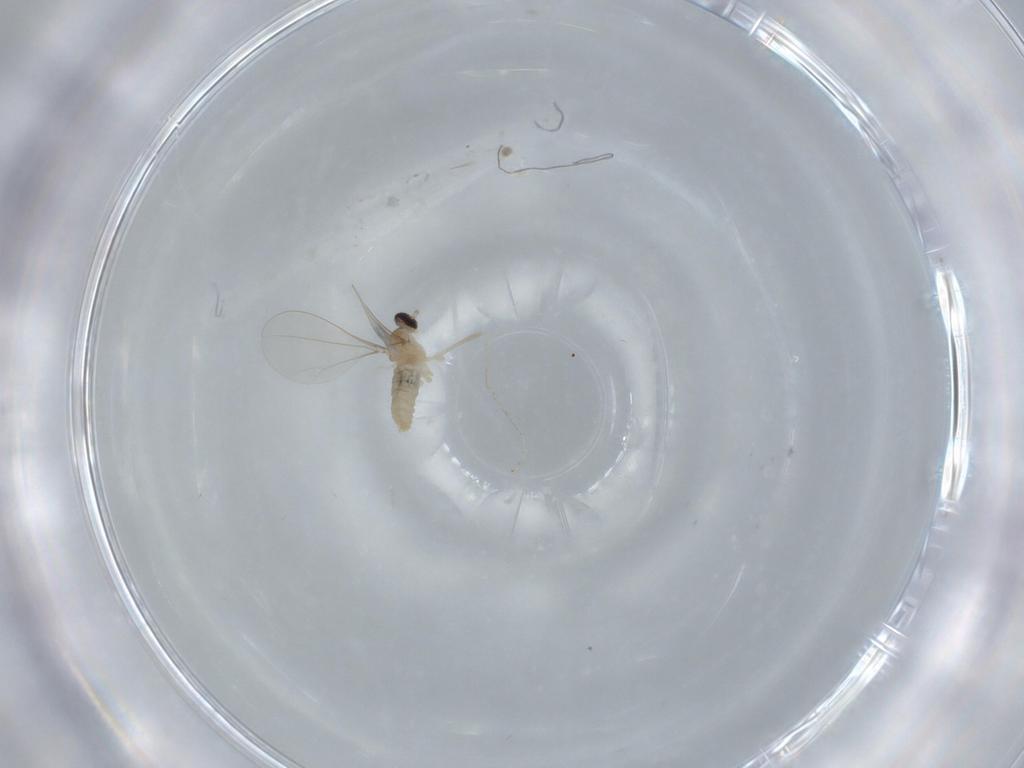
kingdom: Animalia
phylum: Arthropoda
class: Insecta
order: Diptera
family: Cecidomyiidae
